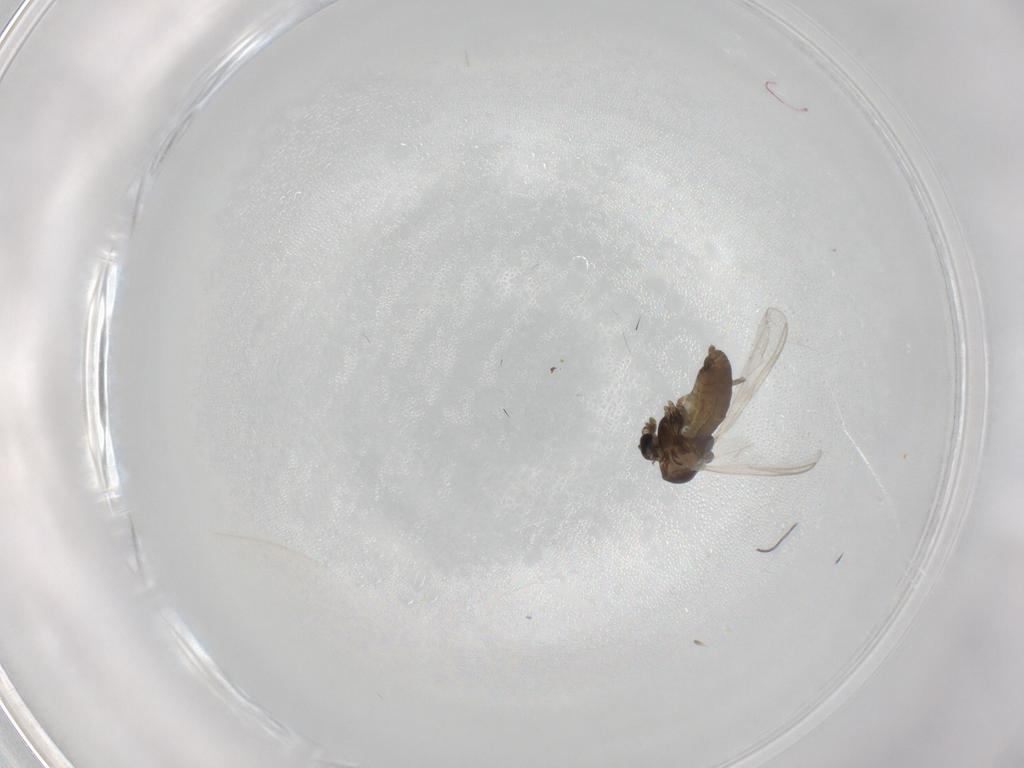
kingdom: Animalia
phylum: Arthropoda
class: Insecta
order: Diptera
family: Chironomidae
